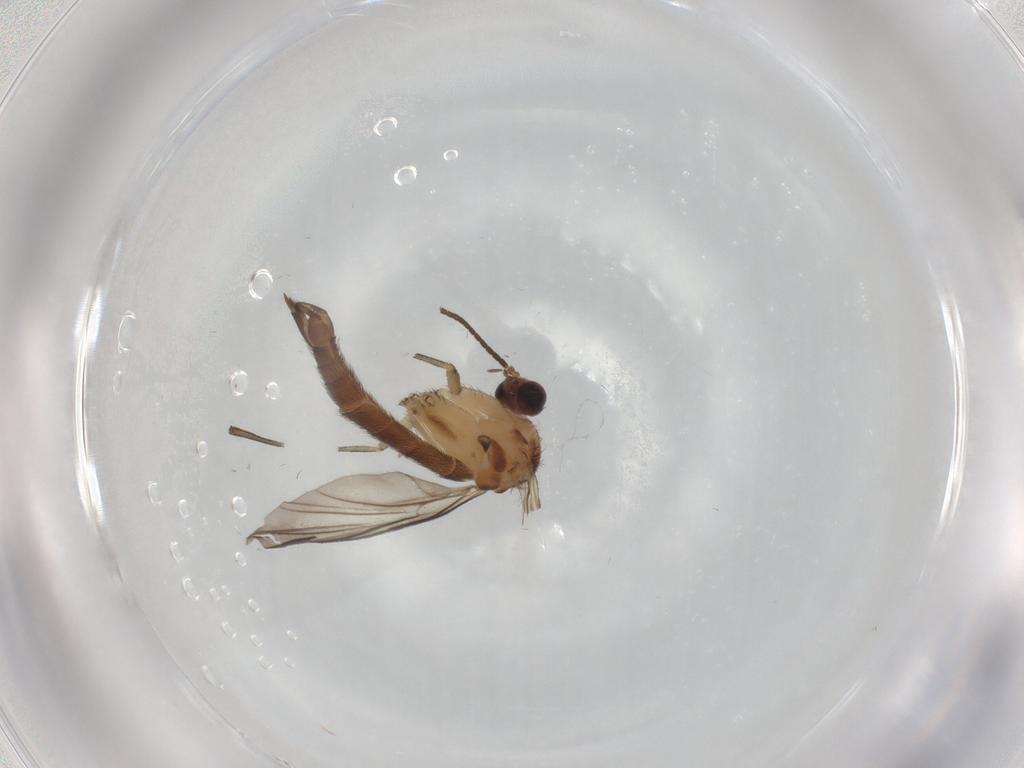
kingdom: Animalia
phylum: Arthropoda
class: Insecta
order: Diptera
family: Keroplatidae
